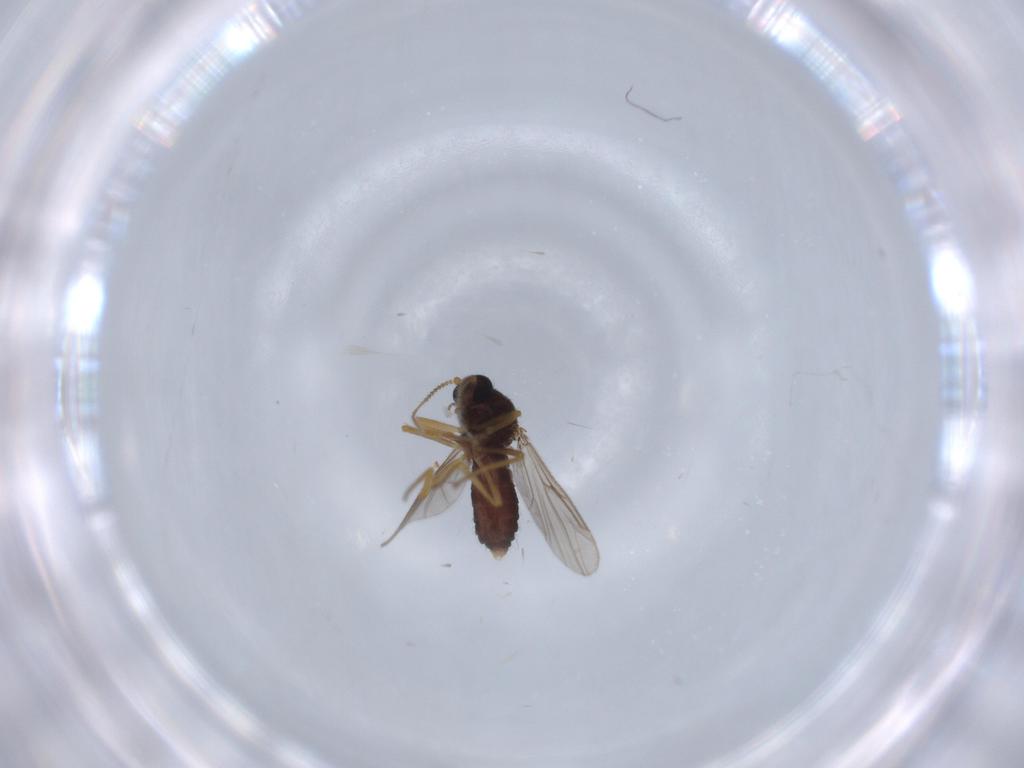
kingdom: Animalia
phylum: Arthropoda
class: Insecta
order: Diptera
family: Ceratopogonidae
